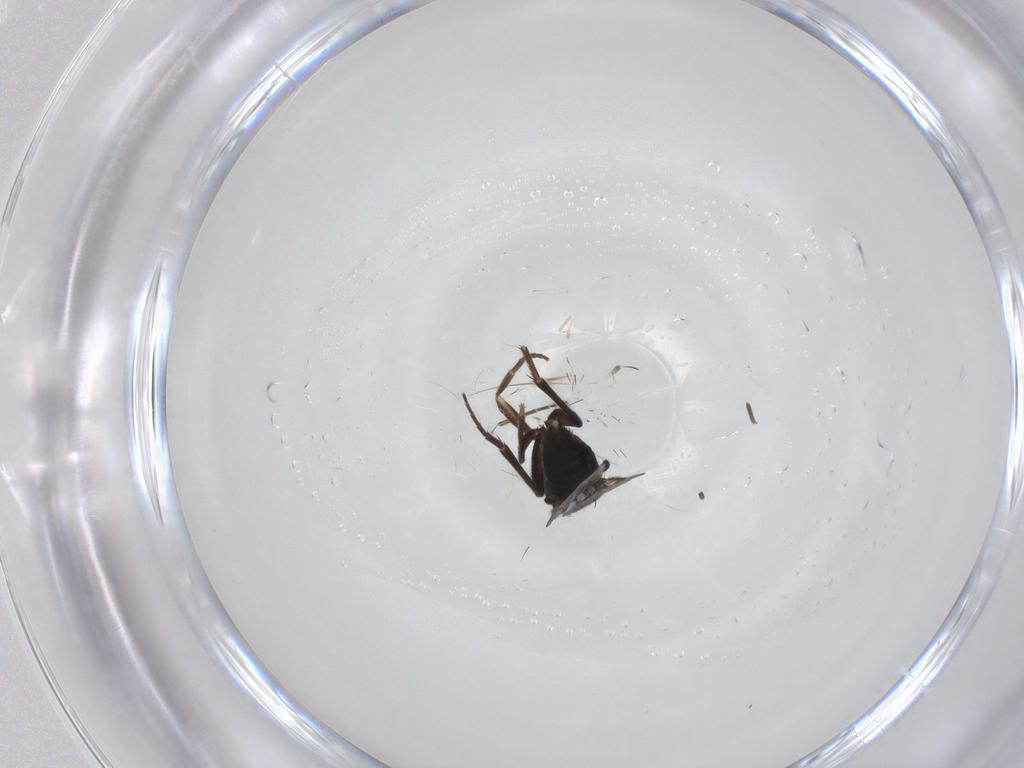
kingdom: Animalia
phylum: Arthropoda
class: Insecta
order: Diptera
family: Phoridae
